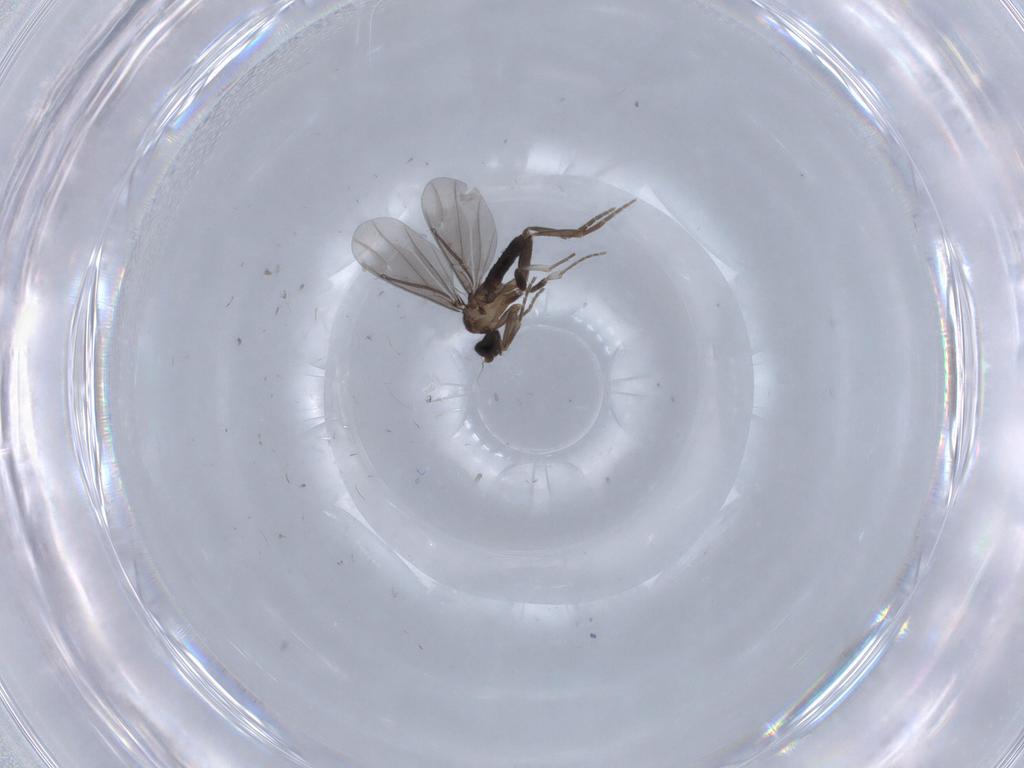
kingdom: Animalia
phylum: Arthropoda
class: Insecta
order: Diptera
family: Phoridae
